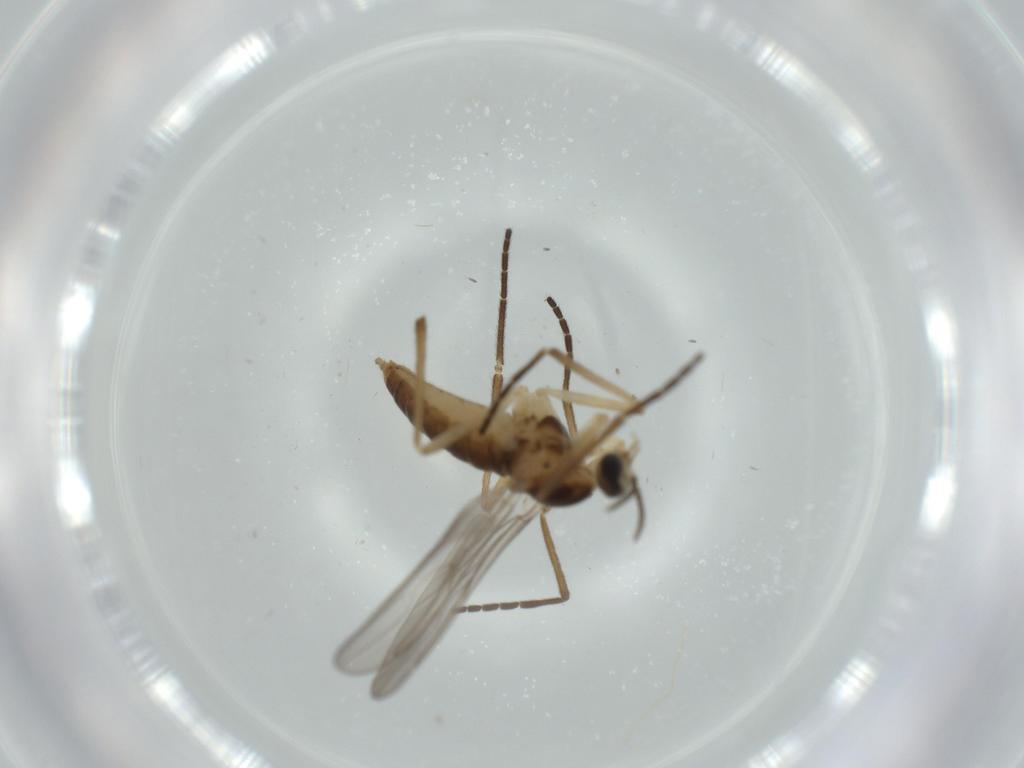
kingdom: Animalia
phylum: Arthropoda
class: Insecta
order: Diptera
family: Cecidomyiidae
